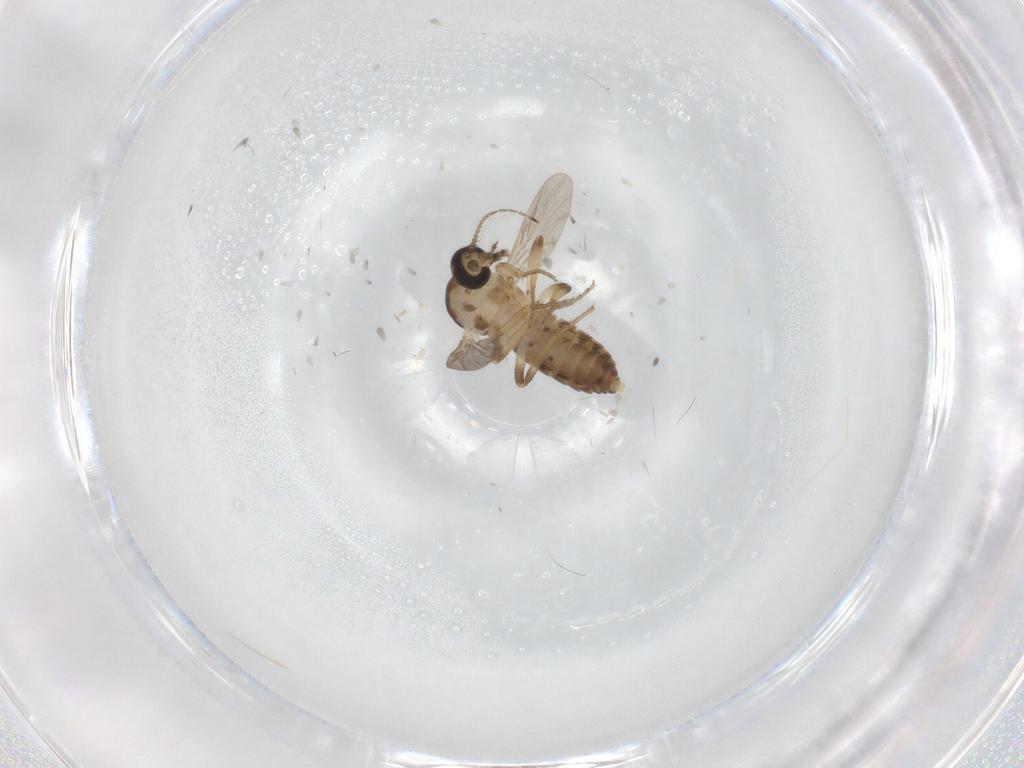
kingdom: Animalia
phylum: Arthropoda
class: Insecta
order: Diptera
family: Ceratopogonidae
